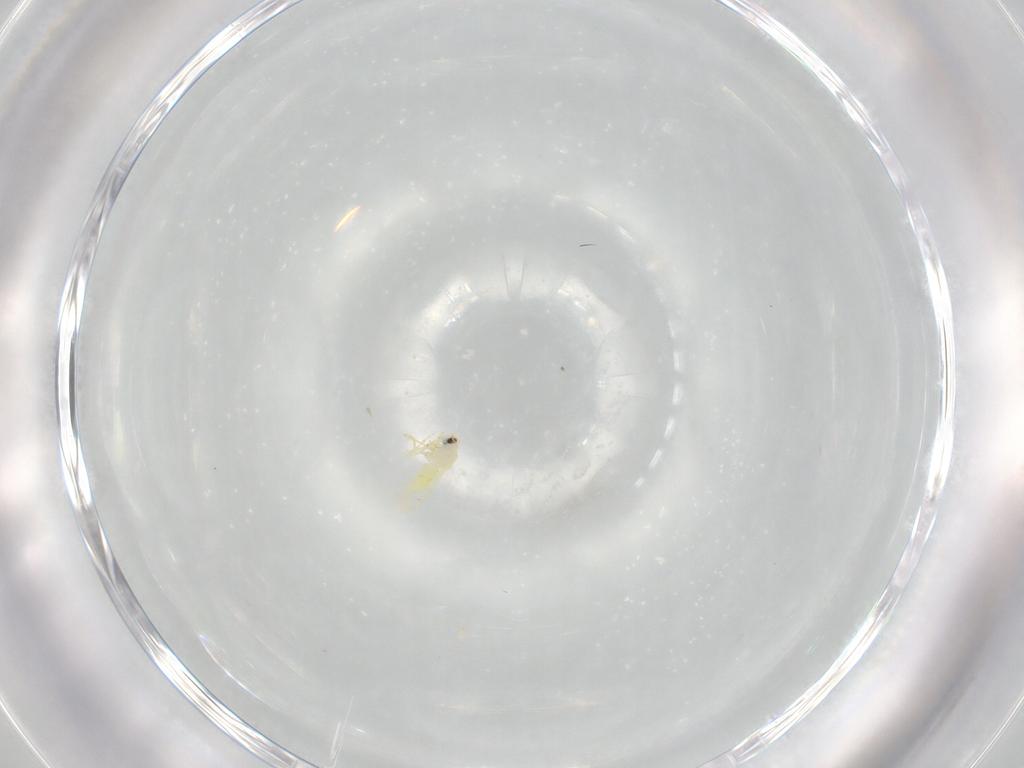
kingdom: Animalia
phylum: Arthropoda
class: Insecta
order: Hemiptera
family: Aleyrodidae
